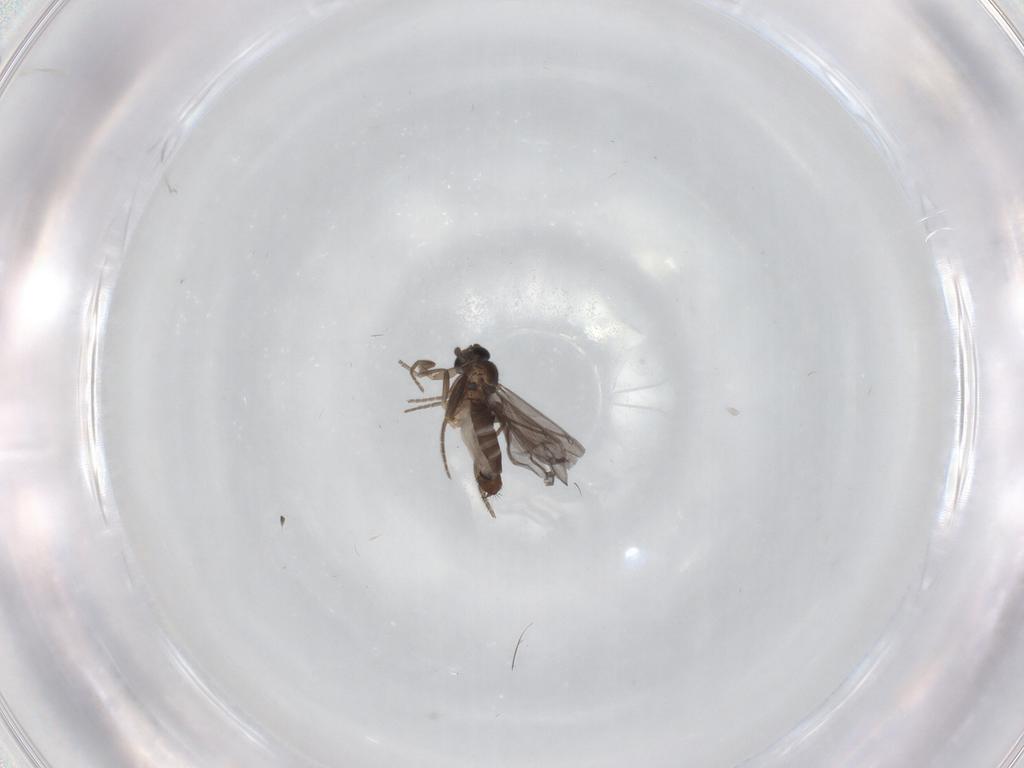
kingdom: Animalia
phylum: Arthropoda
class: Insecta
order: Diptera
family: Phoridae
